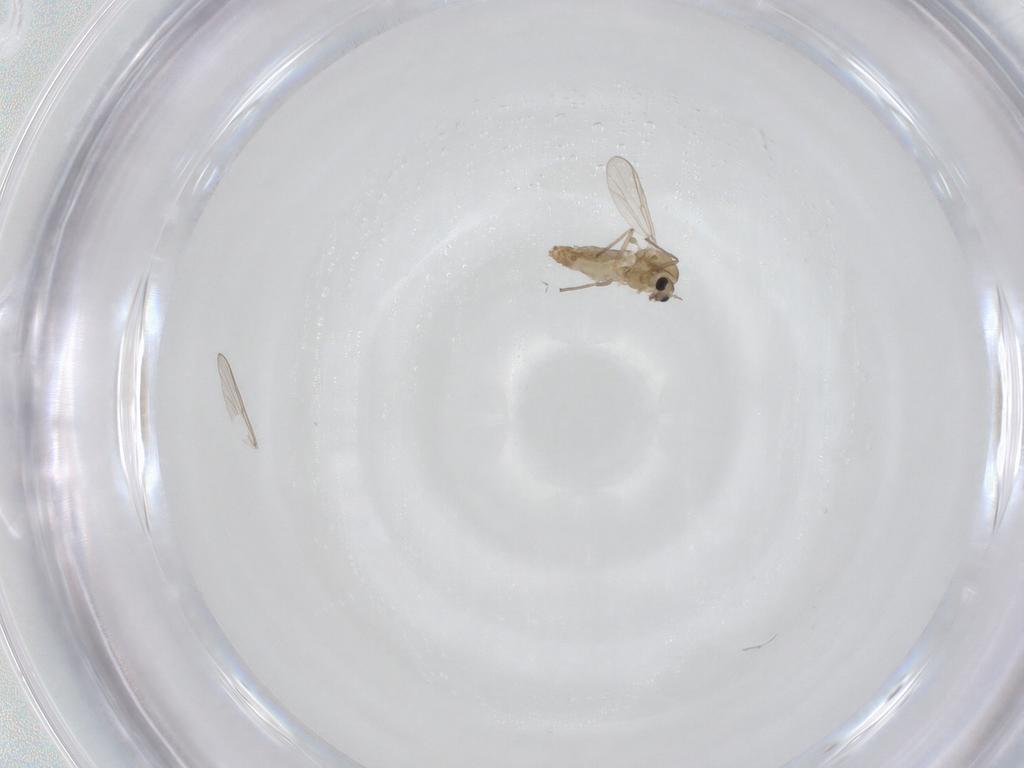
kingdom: Animalia
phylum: Arthropoda
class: Insecta
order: Diptera
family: Chironomidae
